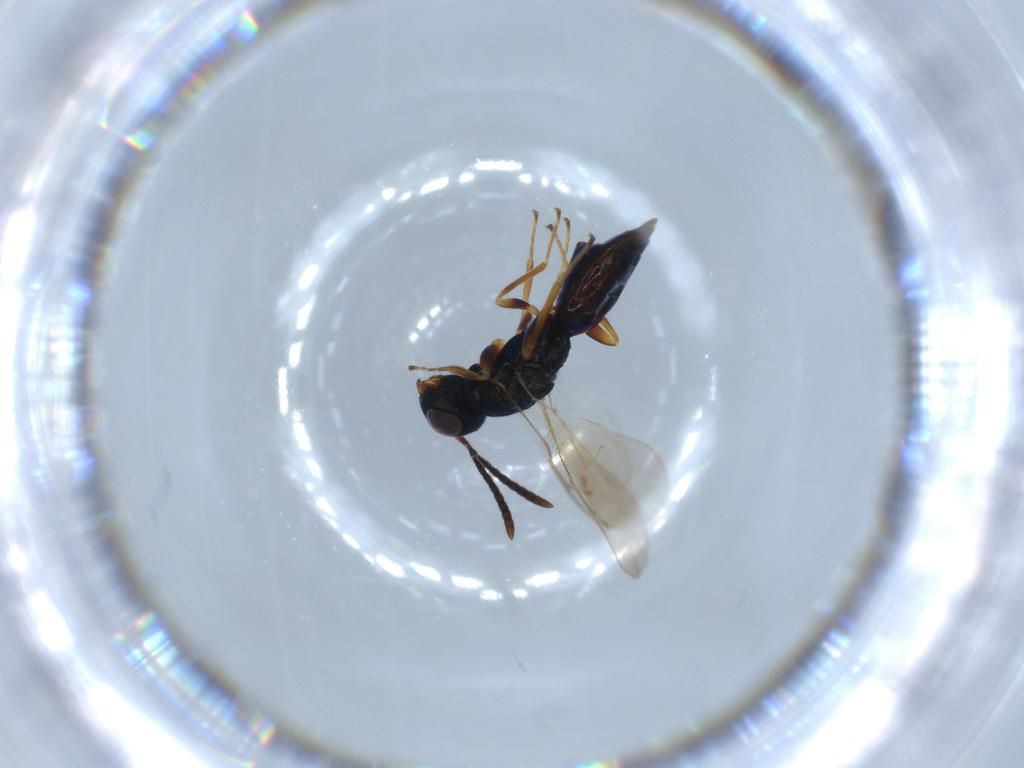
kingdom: Animalia
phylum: Arthropoda
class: Insecta
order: Hymenoptera
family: Pteromalidae
